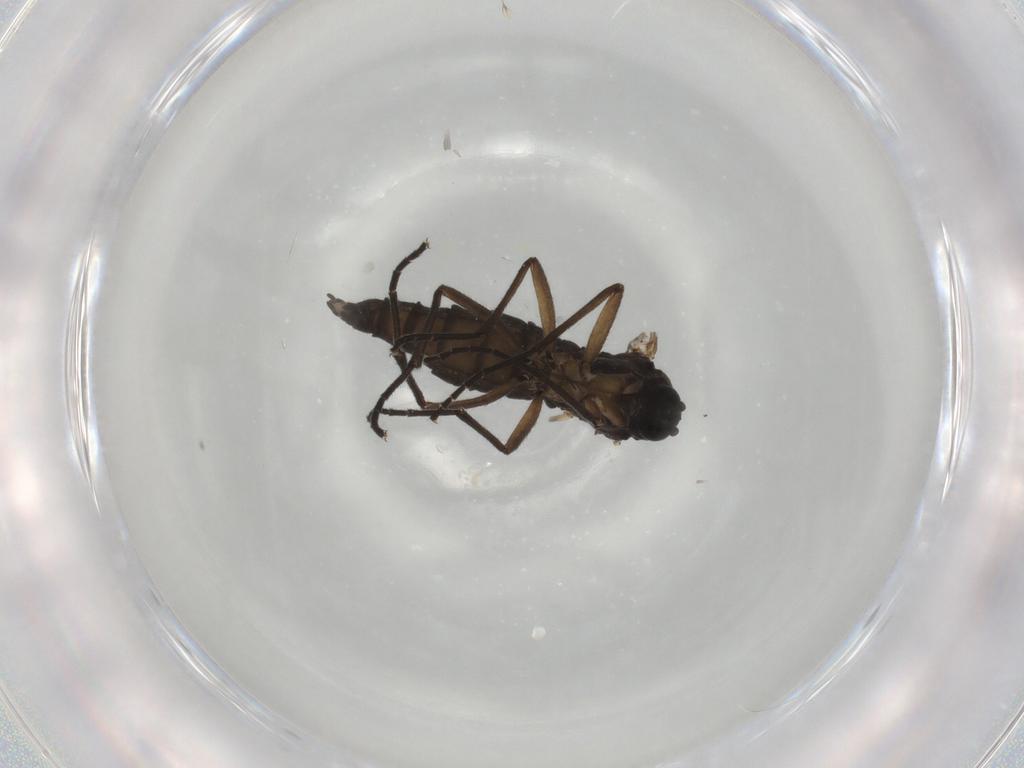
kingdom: Animalia
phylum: Arthropoda
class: Insecta
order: Diptera
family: Sciaridae
